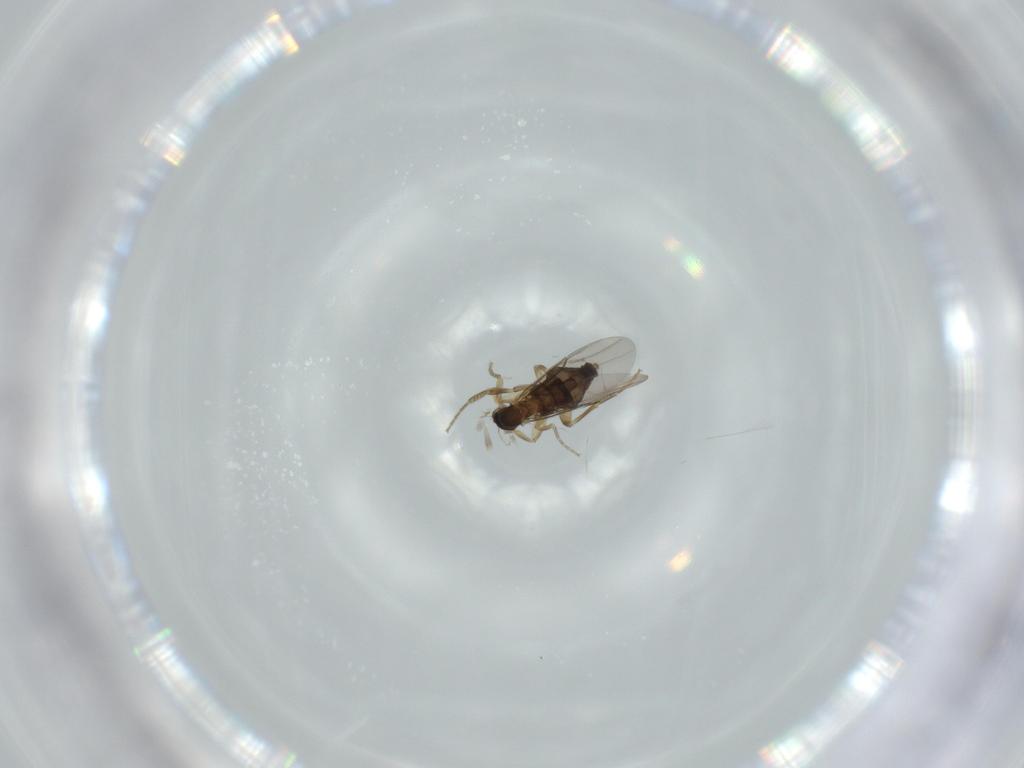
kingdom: Animalia
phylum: Arthropoda
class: Insecta
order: Diptera
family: Phoridae
